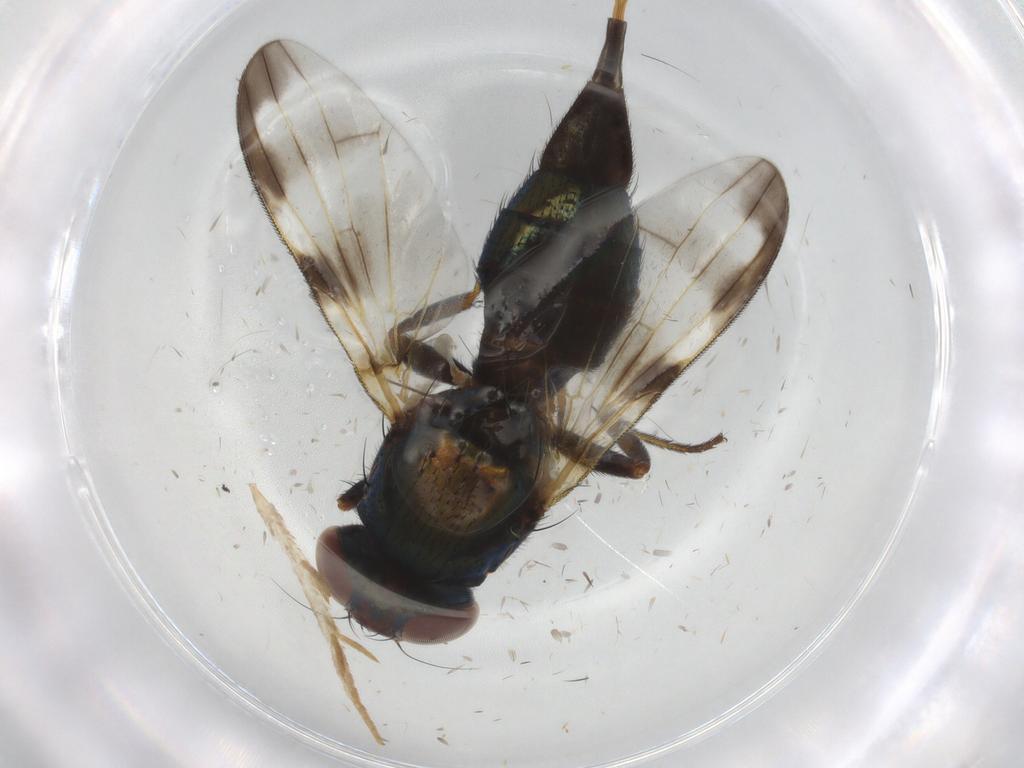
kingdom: Animalia
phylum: Arthropoda
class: Insecta
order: Diptera
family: Ulidiidae
